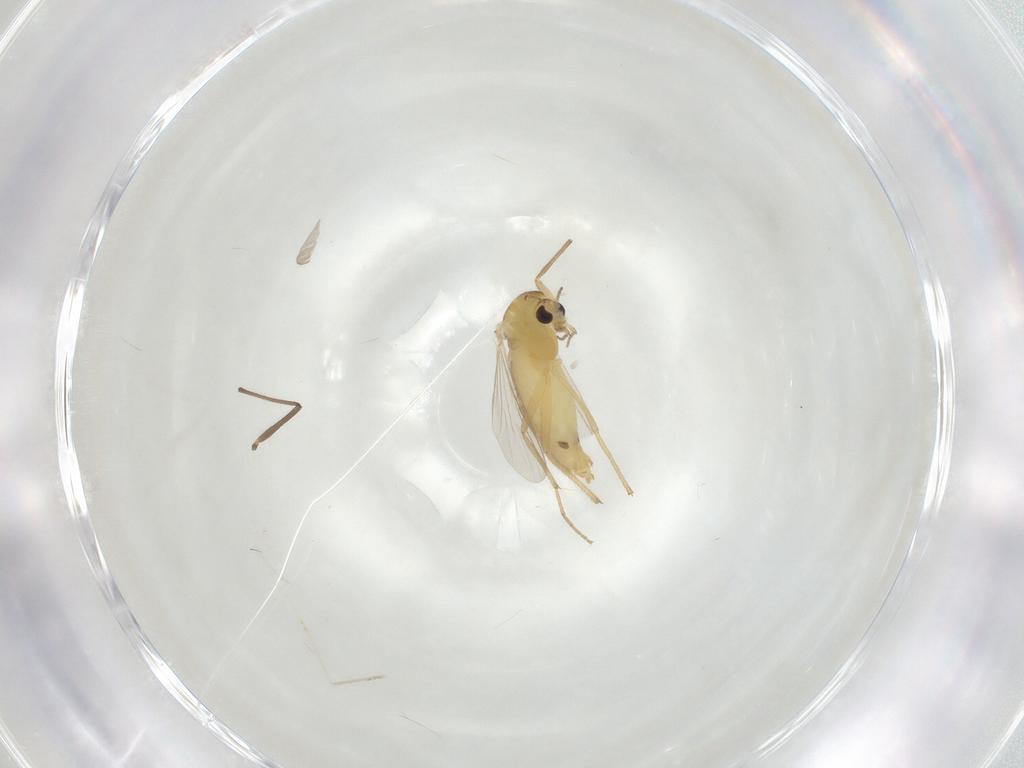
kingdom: Animalia
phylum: Arthropoda
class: Insecta
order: Diptera
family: Chironomidae
